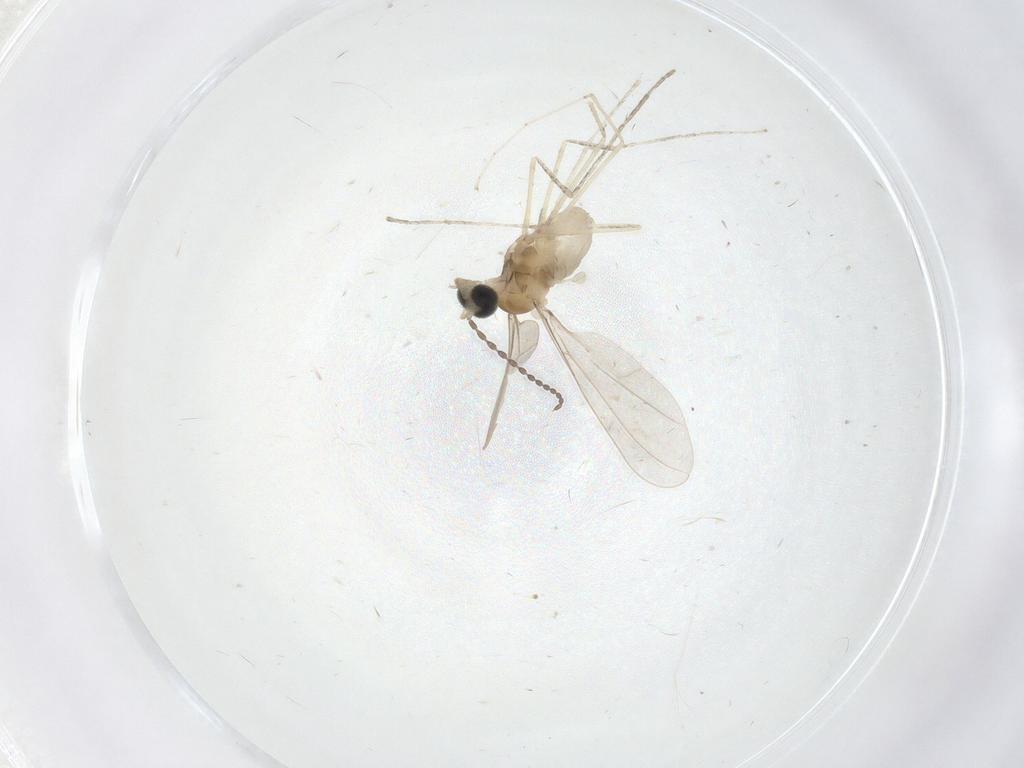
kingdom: Animalia
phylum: Arthropoda
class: Insecta
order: Diptera
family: Cecidomyiidae
